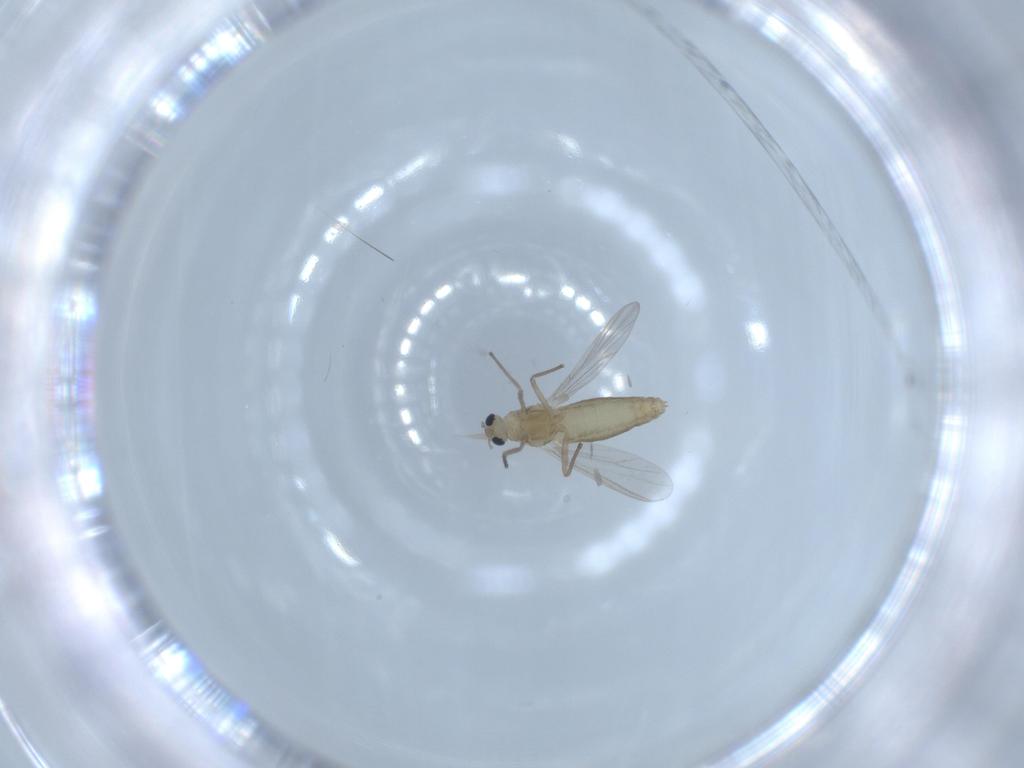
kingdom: Animalia
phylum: Arthropoda
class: Insecta
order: Diptera
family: Chironomidae
